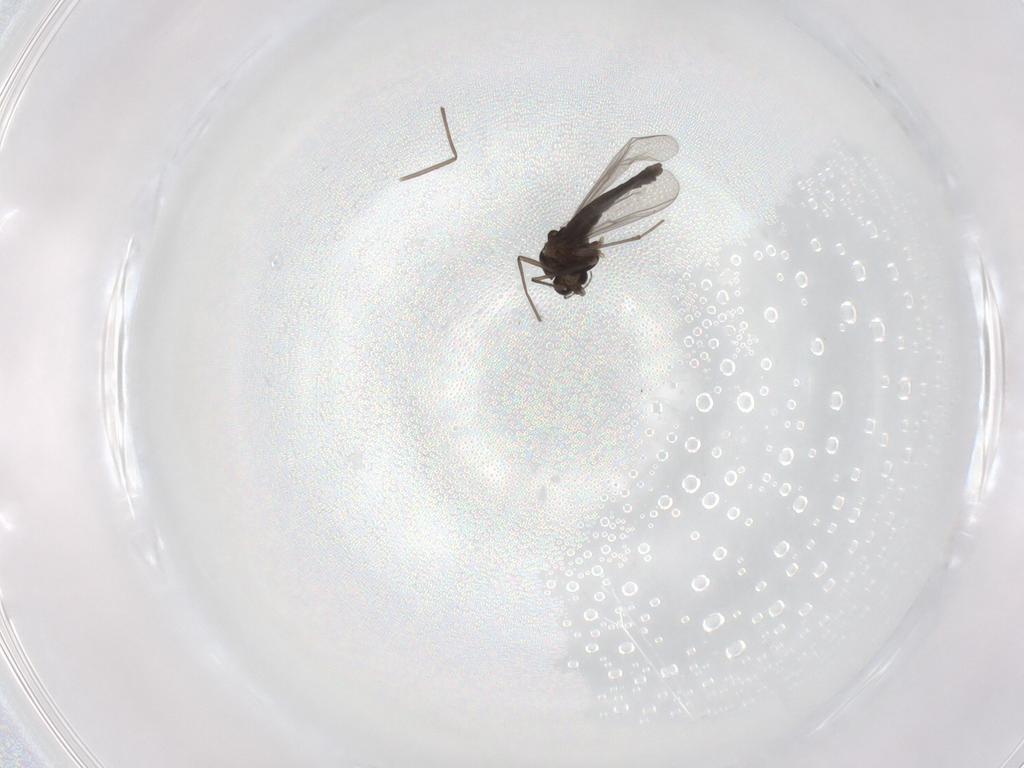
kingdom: Animalia
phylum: Arthropoda
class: Insecta
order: Diptera
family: Chironomidae
